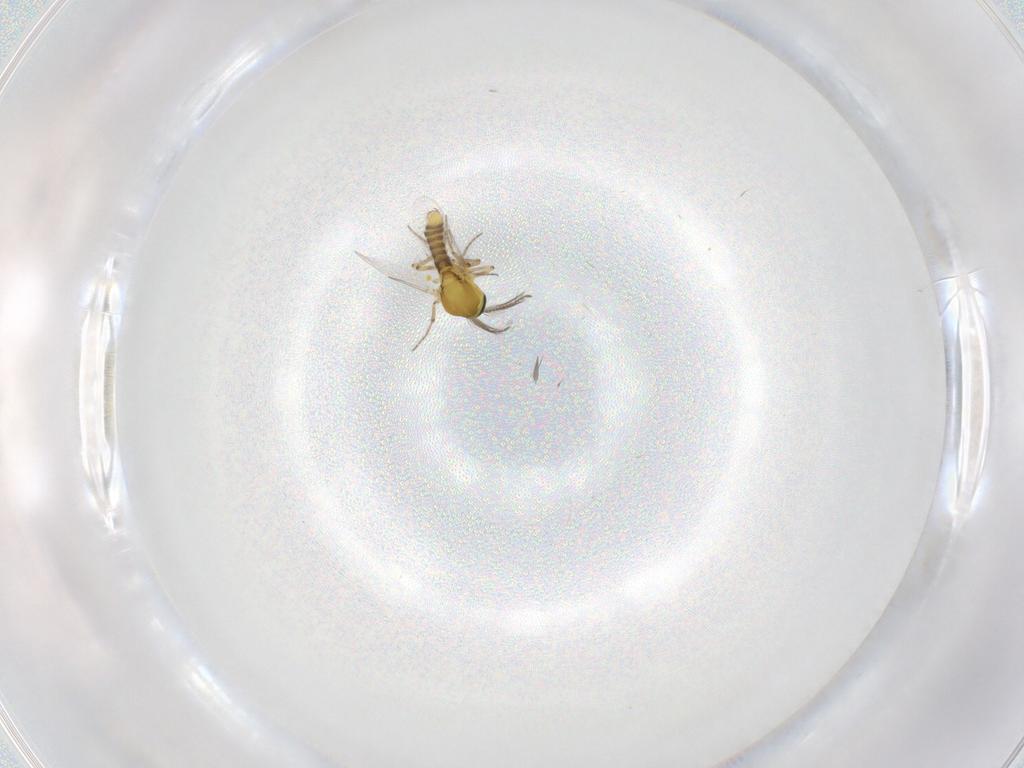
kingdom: Animalia
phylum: Arthropoda
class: Insecta
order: Diptera
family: Ceratopogonidae
